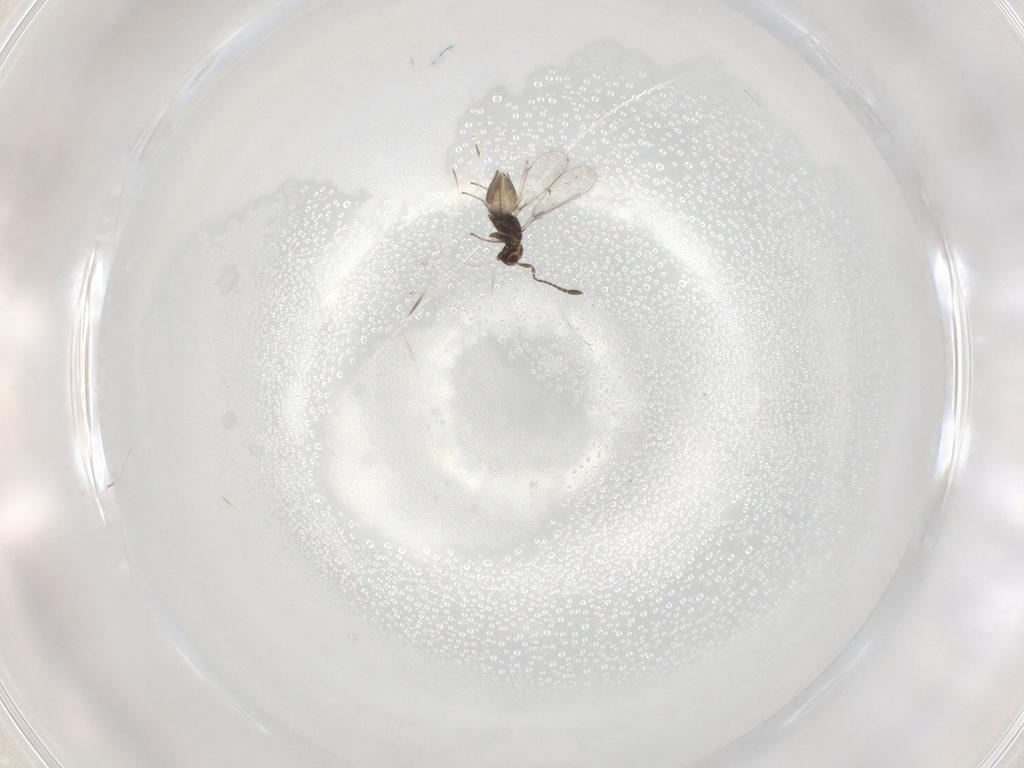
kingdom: Animalia
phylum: Arthropoda
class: Insecta
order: Hymenoptera
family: Mymaridae
